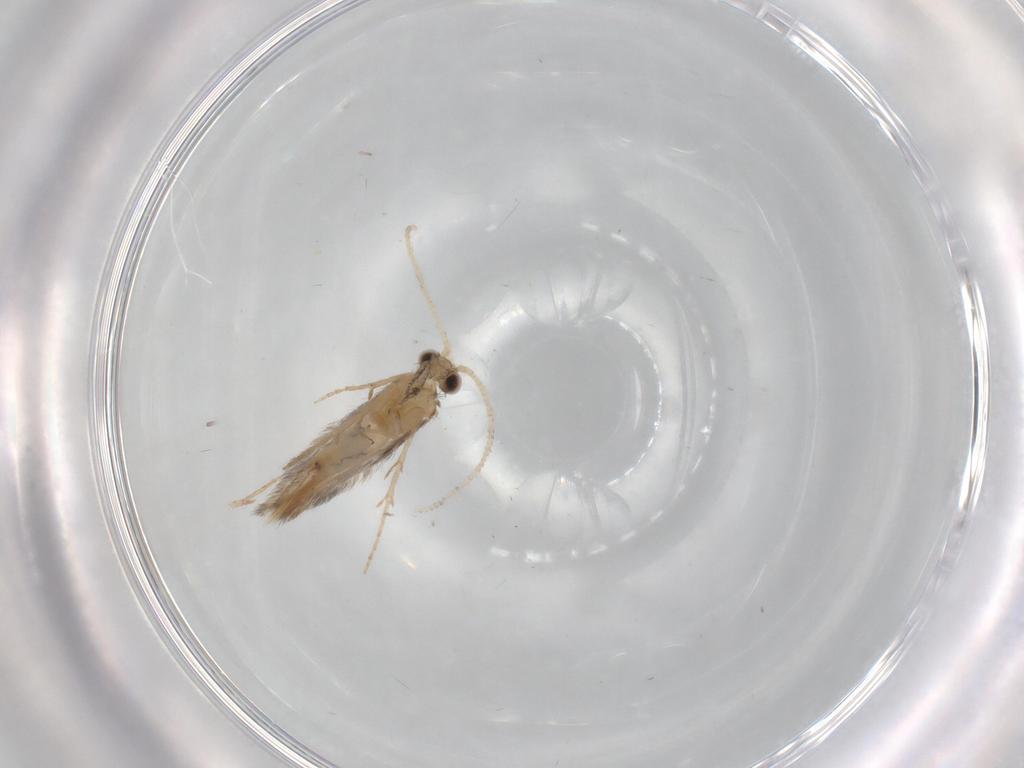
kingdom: Animalia
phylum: Arthropoda
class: Insecta
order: Trichoptera
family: Hydroptilidae
